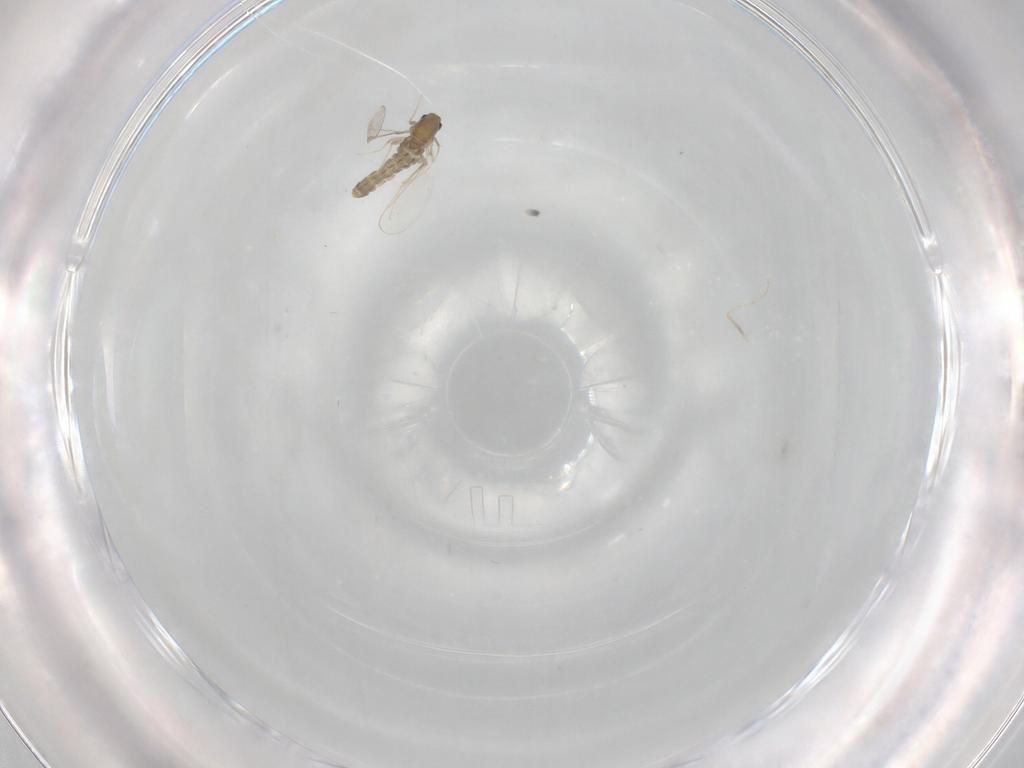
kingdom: Animalia
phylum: Arthropoda
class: Insecta
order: Diptera
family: Chironomidae
